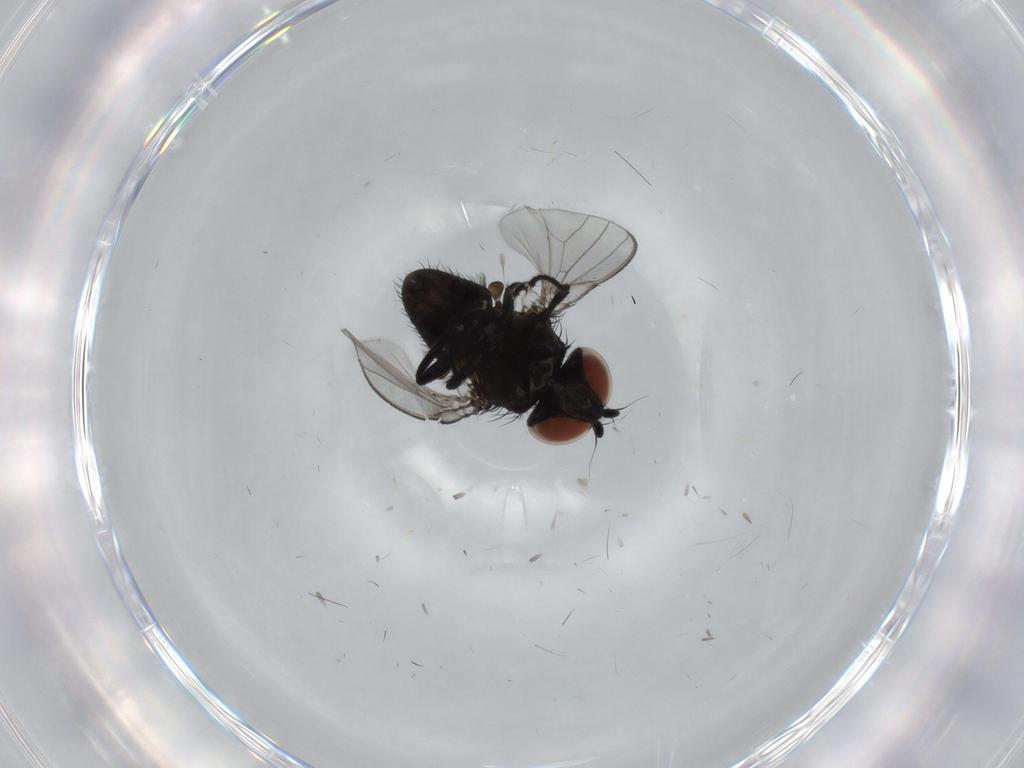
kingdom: Animalia
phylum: Arthropoda
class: Insecta
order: Diptera
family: Milichiidae
